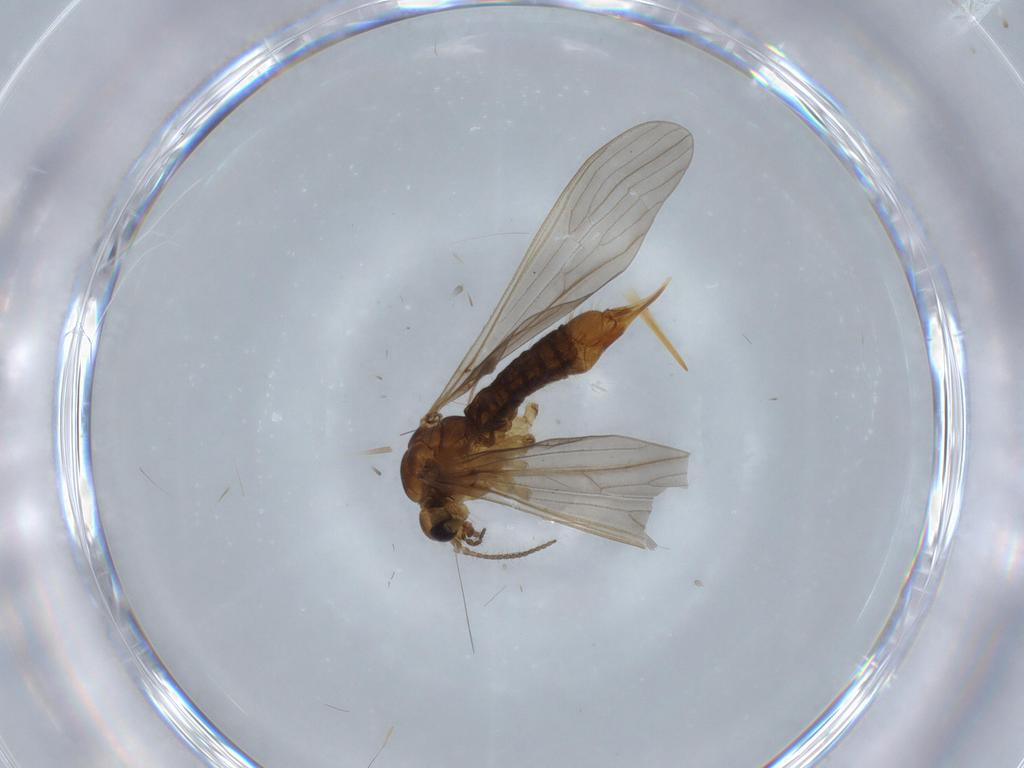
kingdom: Animalia
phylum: Arthropoda
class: Insecta
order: Diptera
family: Limoniidae
